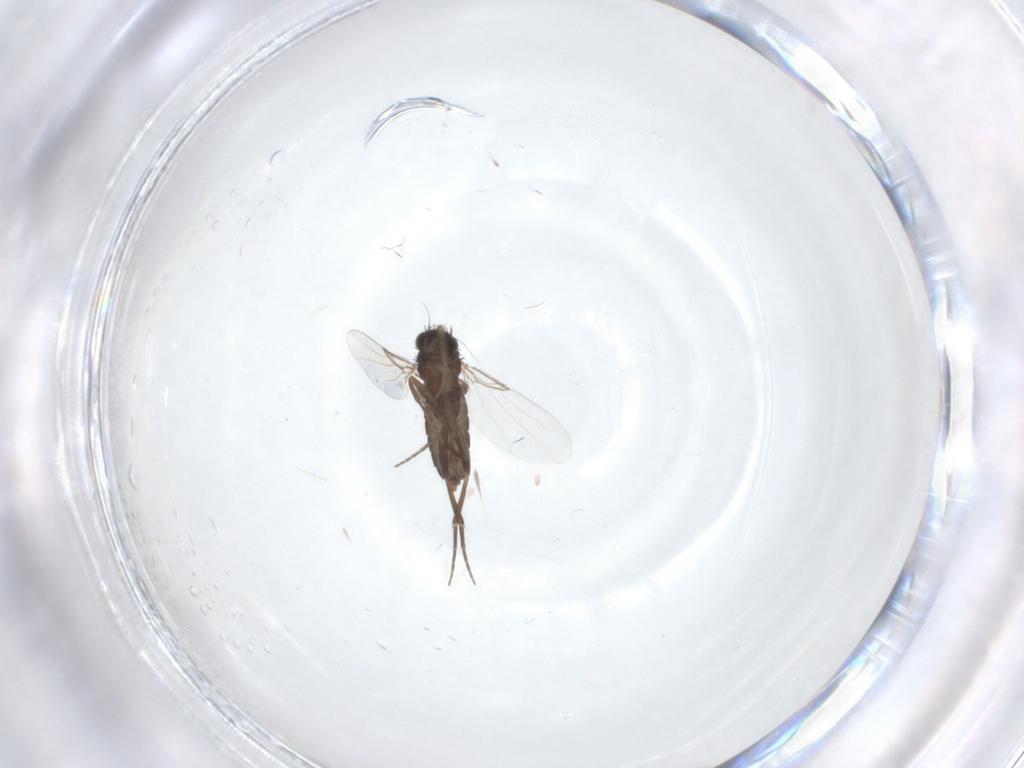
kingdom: Animalia
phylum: Arthropoda
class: Insecta
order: Diptera
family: Phoridae
